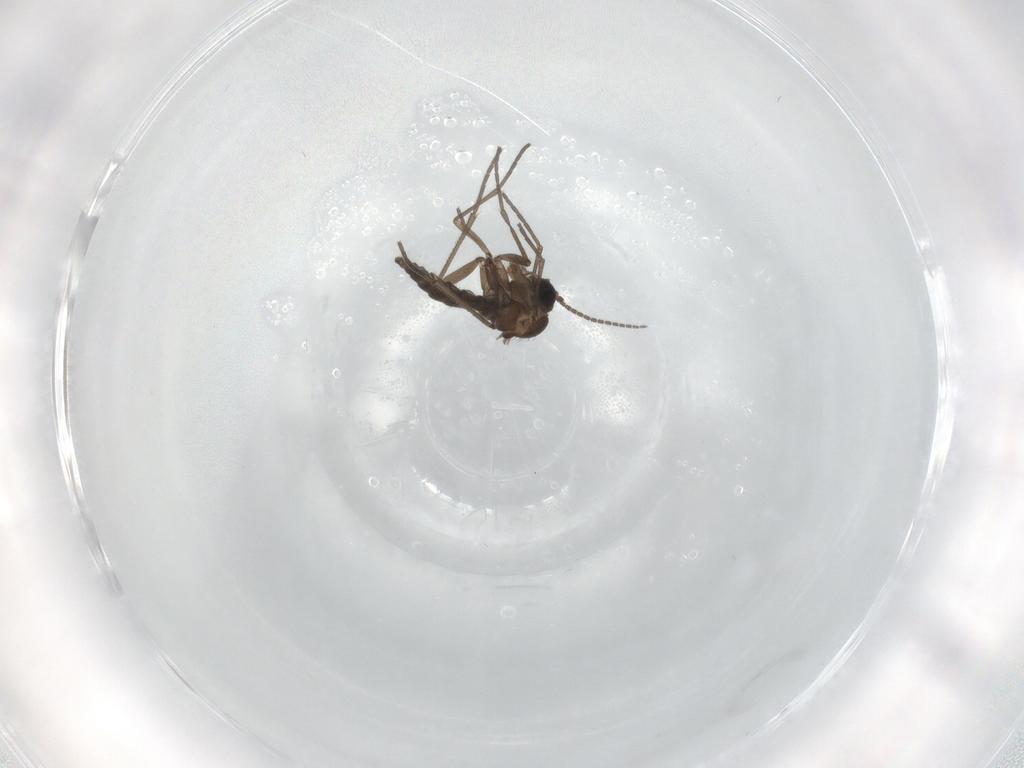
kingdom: Animalia
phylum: Arthropoda
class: Insecta
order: Diptera
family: Sciaridae
